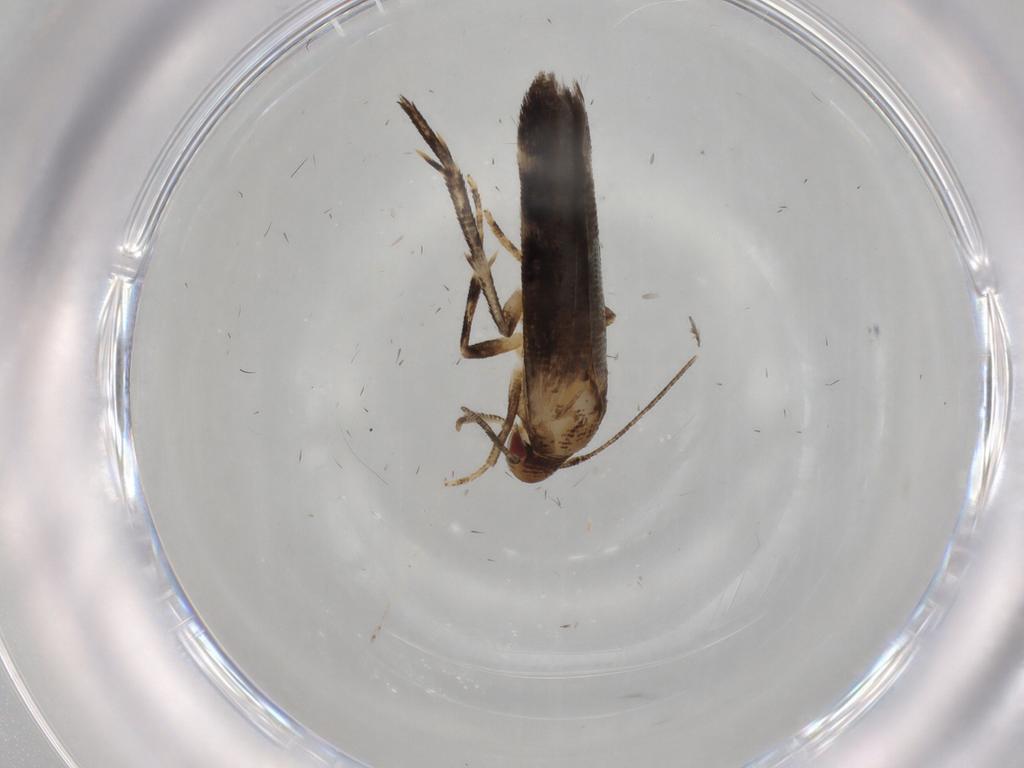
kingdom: Animalia
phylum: Arthropoda
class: Insecta
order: Lepidoptera
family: Momphidae
